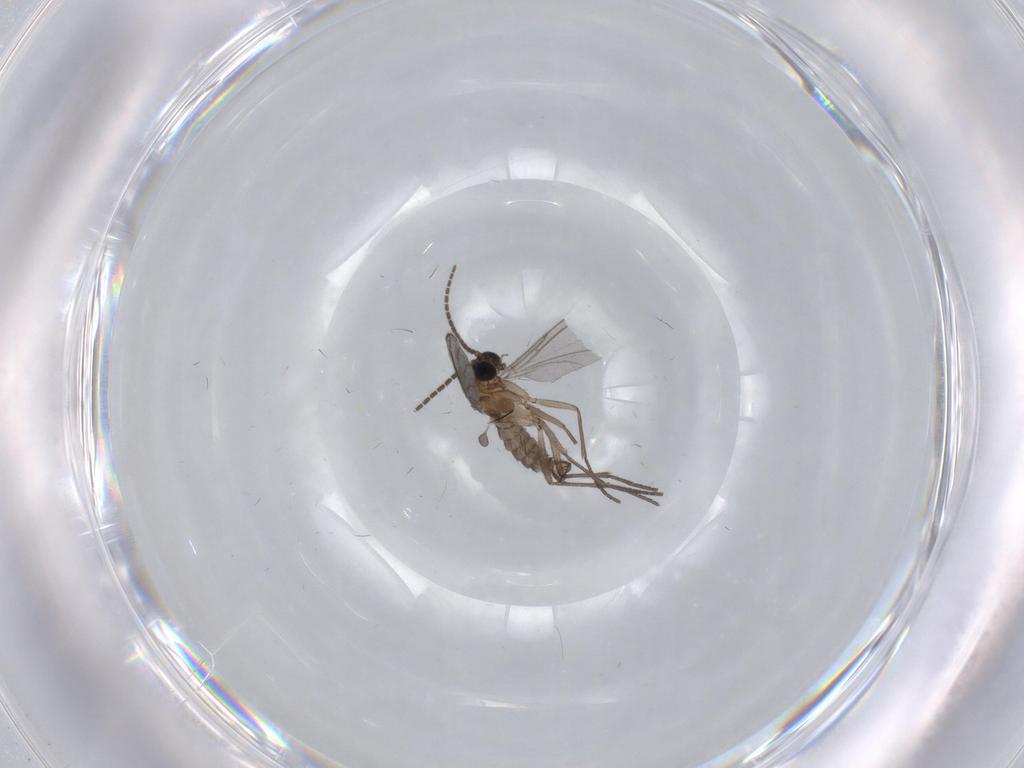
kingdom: Animalia
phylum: Arthropoda
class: Insecta
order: Diptera
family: Sciaridae
